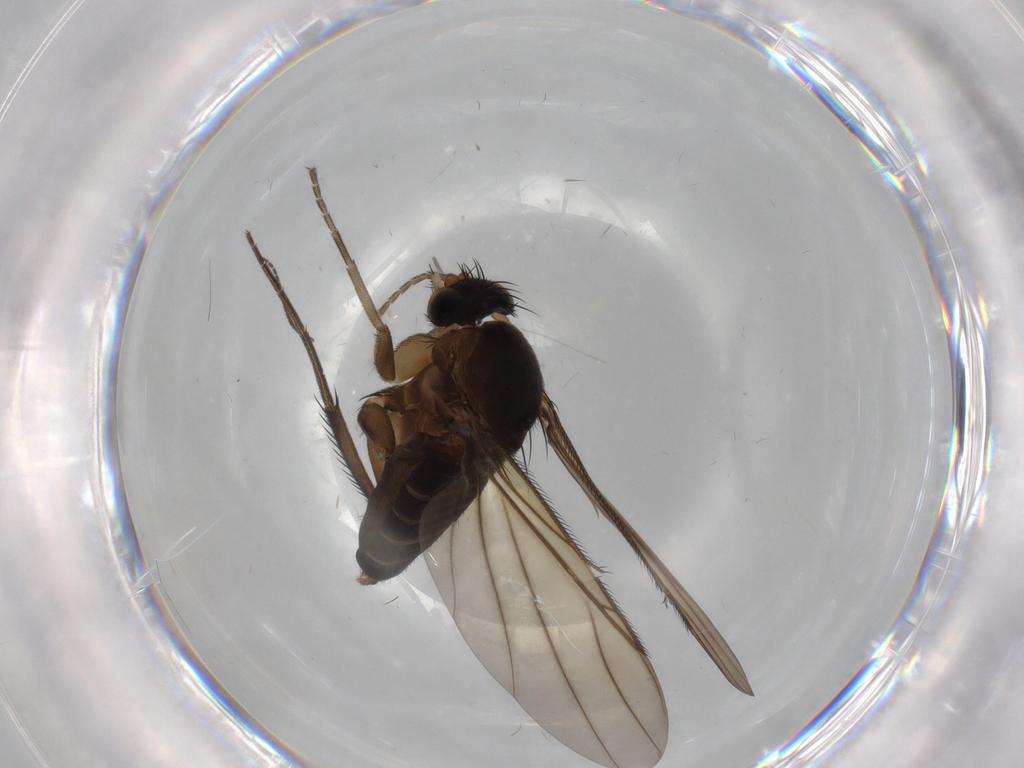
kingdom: Animalia
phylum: Arthropoda
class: Insecta
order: Diptera
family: Phoridae
